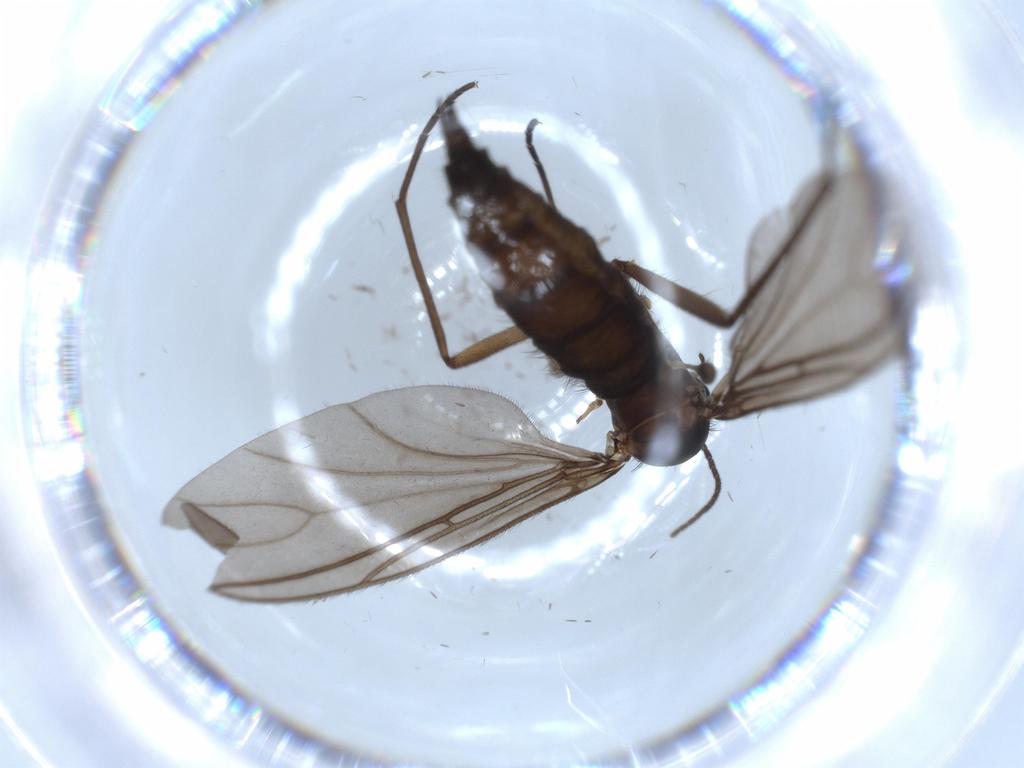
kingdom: Animalia
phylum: Arthropoda
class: Insecta
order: Diptera
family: Sciaridae
